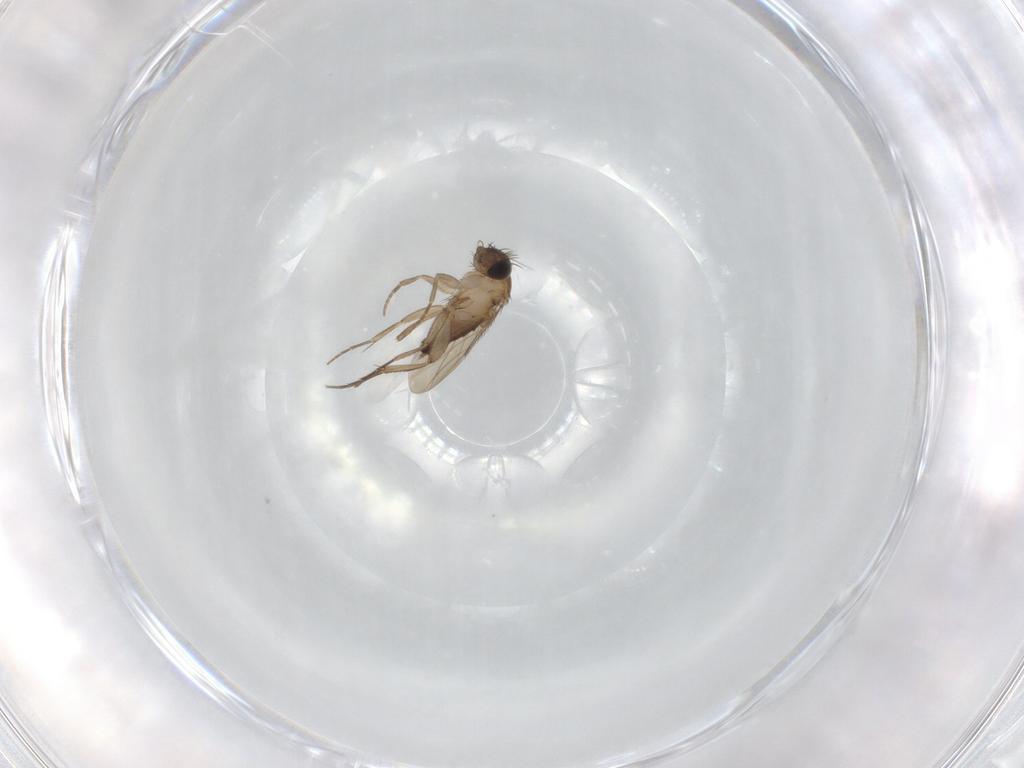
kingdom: Animalia
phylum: Arthropoda
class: Insecta
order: Diptera
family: Phoridae
